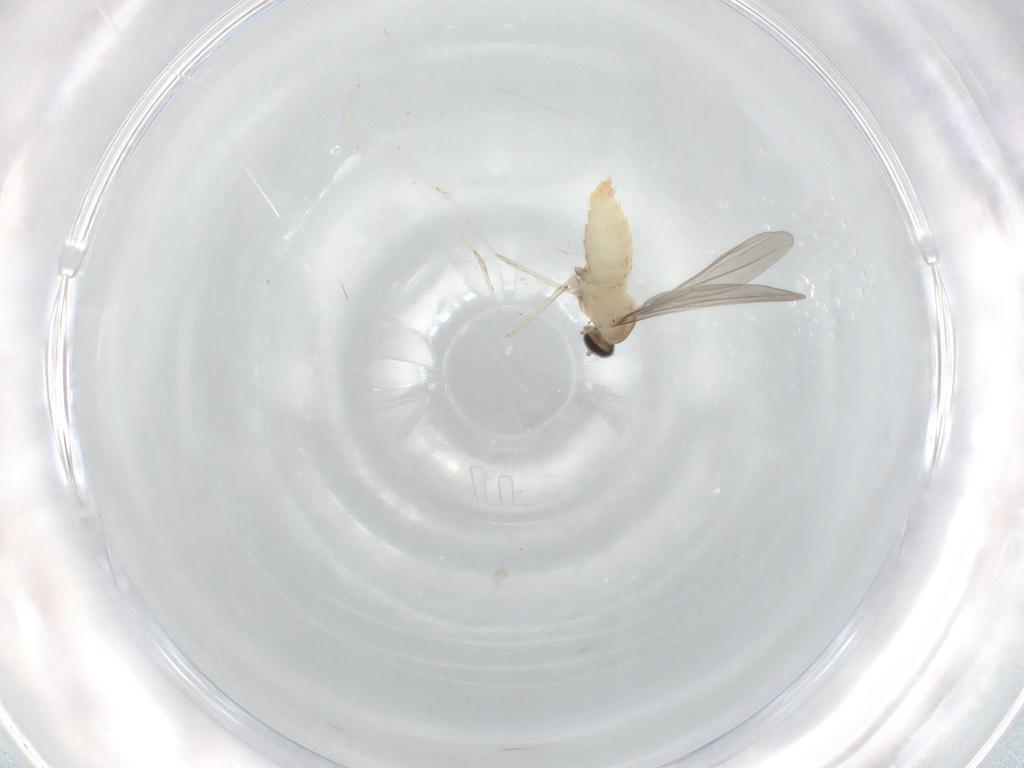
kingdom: Animalia
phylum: Arthropoda
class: Insecta
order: Diptera
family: Cecidomyiidae
